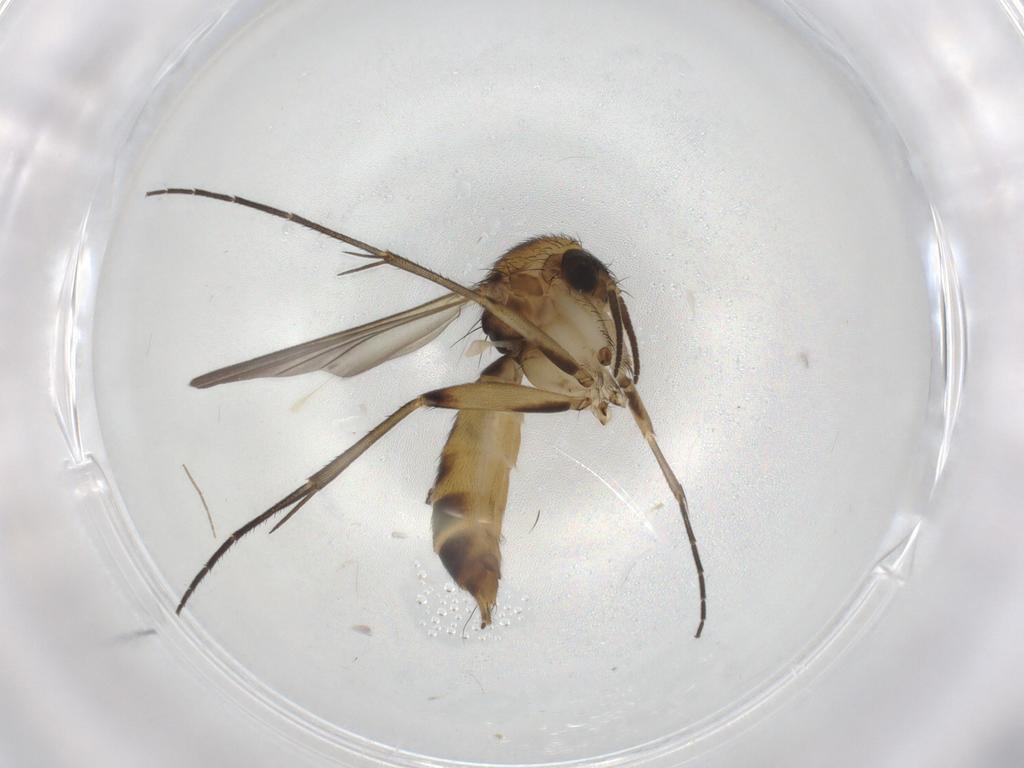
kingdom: Animalia
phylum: Arthropoda
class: Insecta
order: Diptera
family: Mycetophilidae
